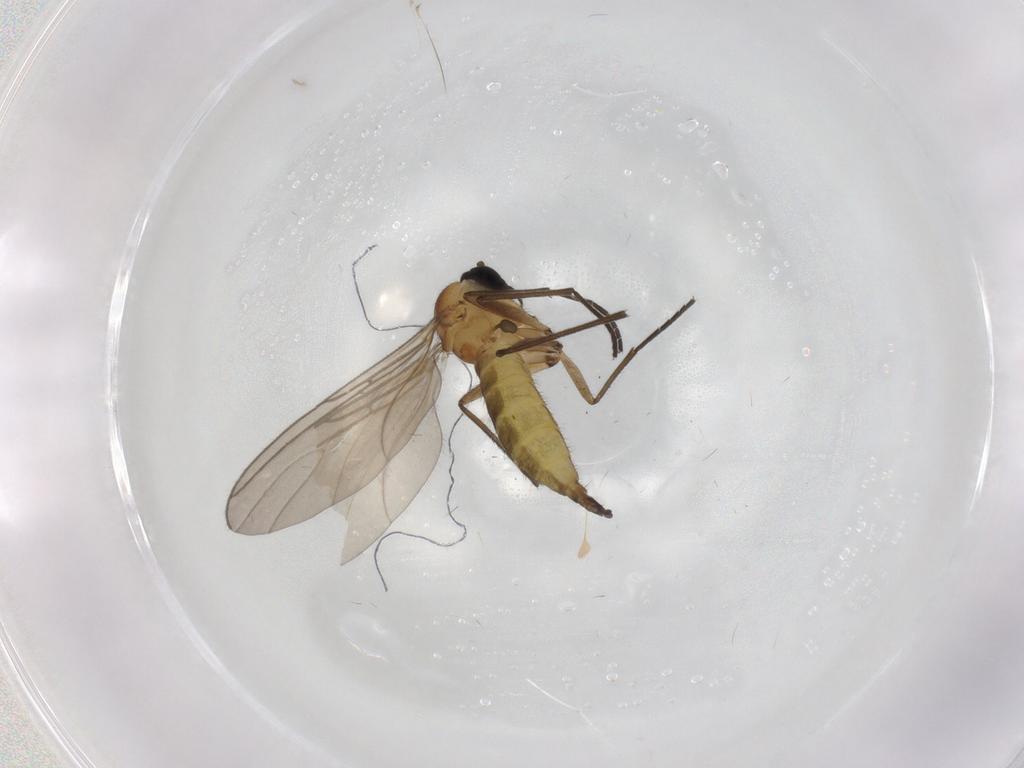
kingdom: Animalia
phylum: Arthropoda
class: Insecta
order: Diptera
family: Sciaridae
